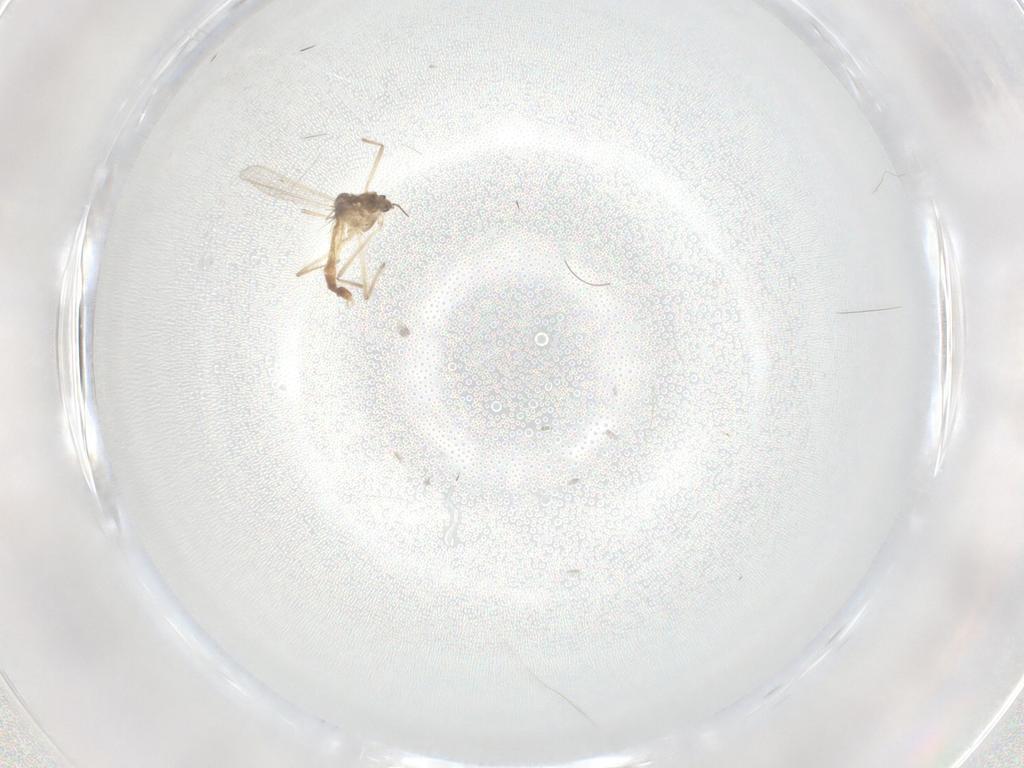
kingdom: Animalia
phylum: Arthropoda
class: Insecta
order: Diptera
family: Chironomidae
